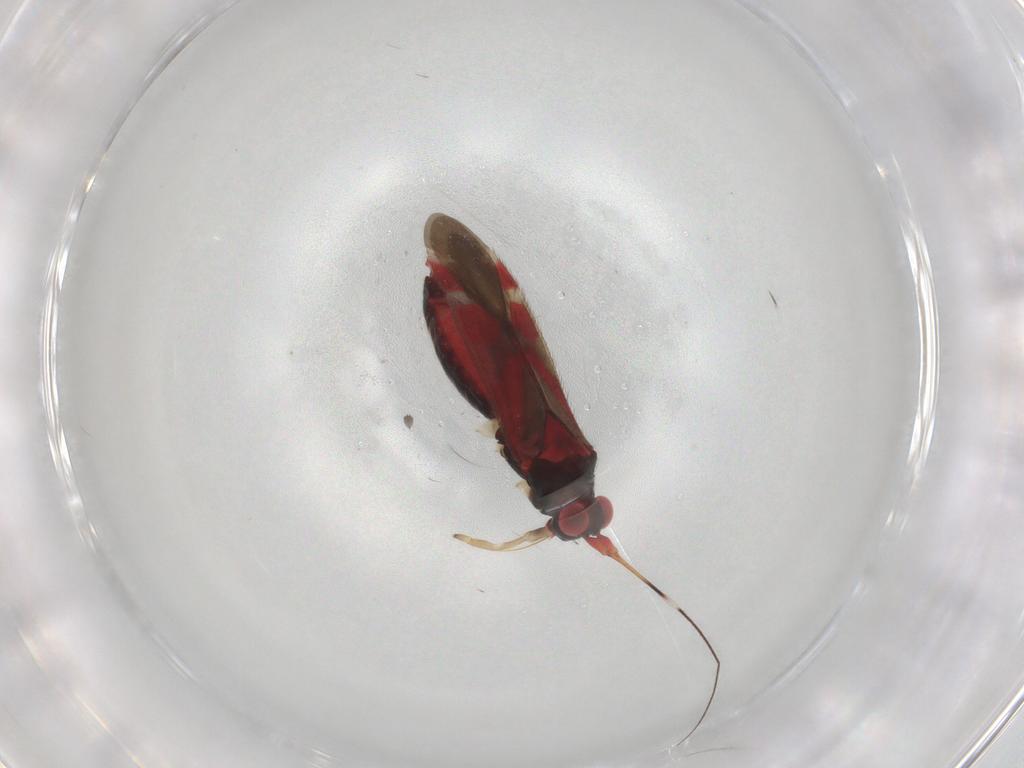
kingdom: Animalia
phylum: Arthropoda
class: Insecta
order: Hemiptera
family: Miridae
